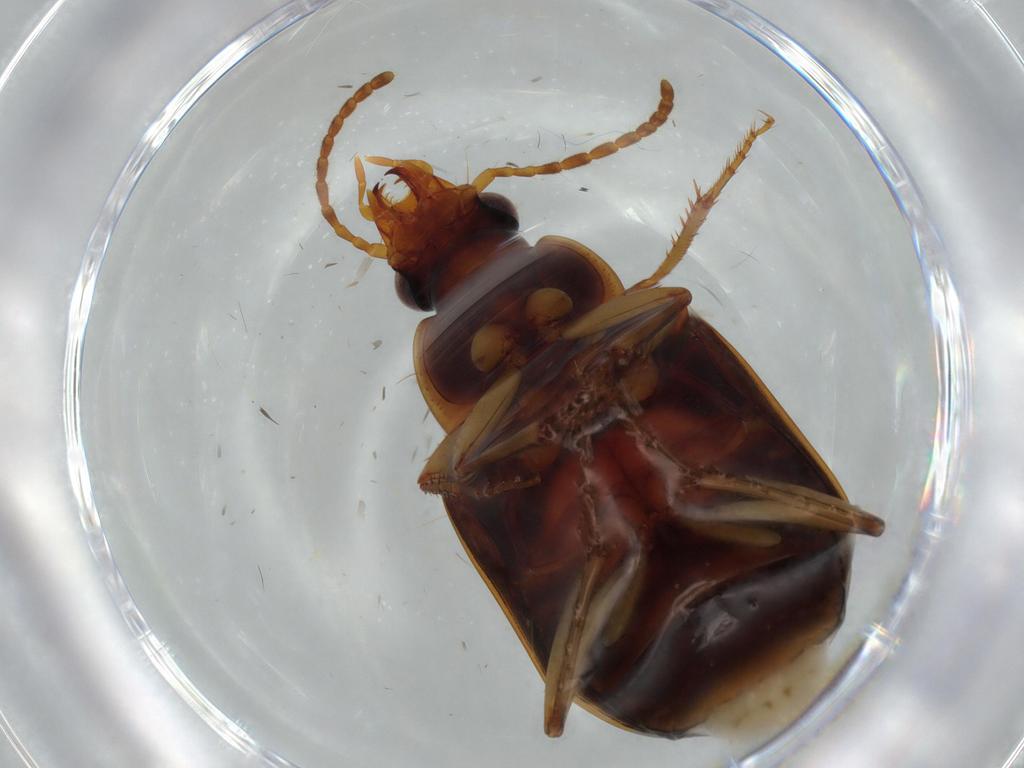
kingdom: Animalia
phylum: Arthropoda
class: Insecta
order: Coleoptera
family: Carabidae
